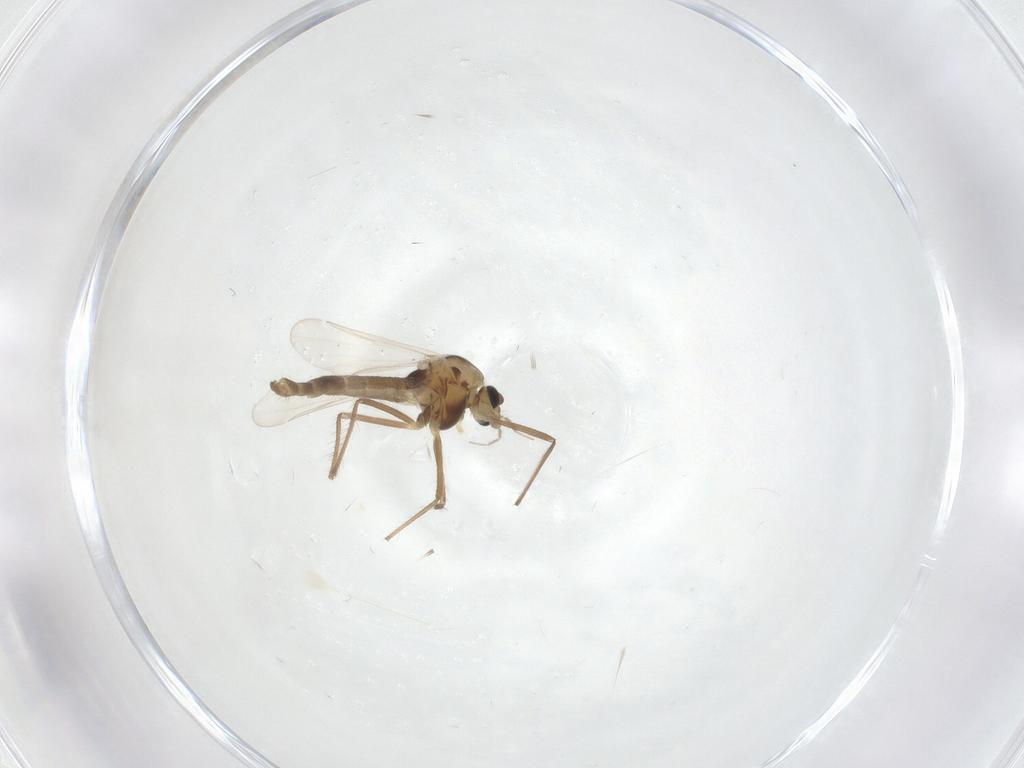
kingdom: Animalia
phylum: Arthropoda
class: Insecta
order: Diptera
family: Chironomidae
